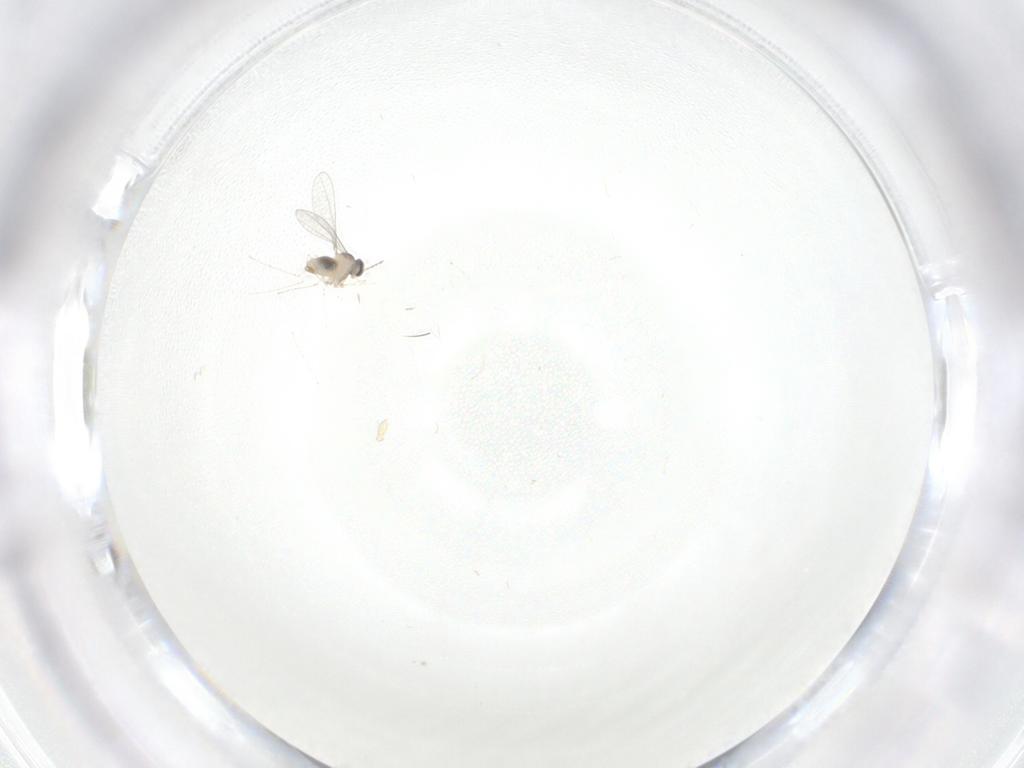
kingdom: Animalia
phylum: Arthropoda
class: Insecta
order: Diptera
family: Cecidomyiidae
